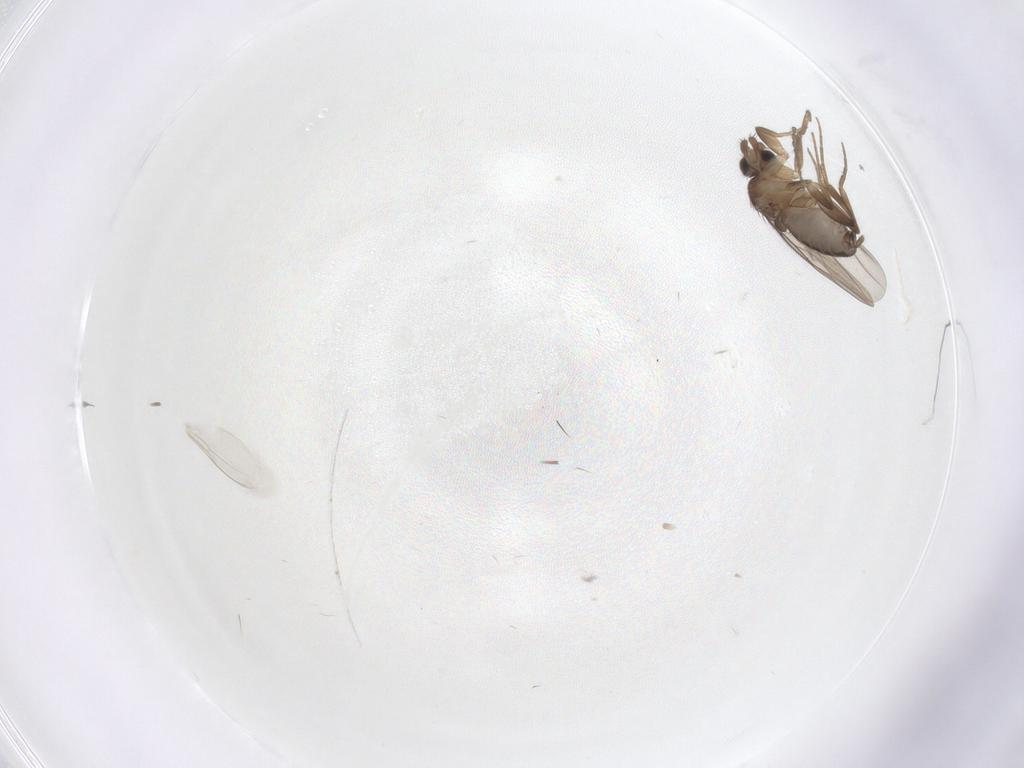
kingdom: Animalia
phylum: Arthropoda
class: Insecta
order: Diptera
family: Phoridae
